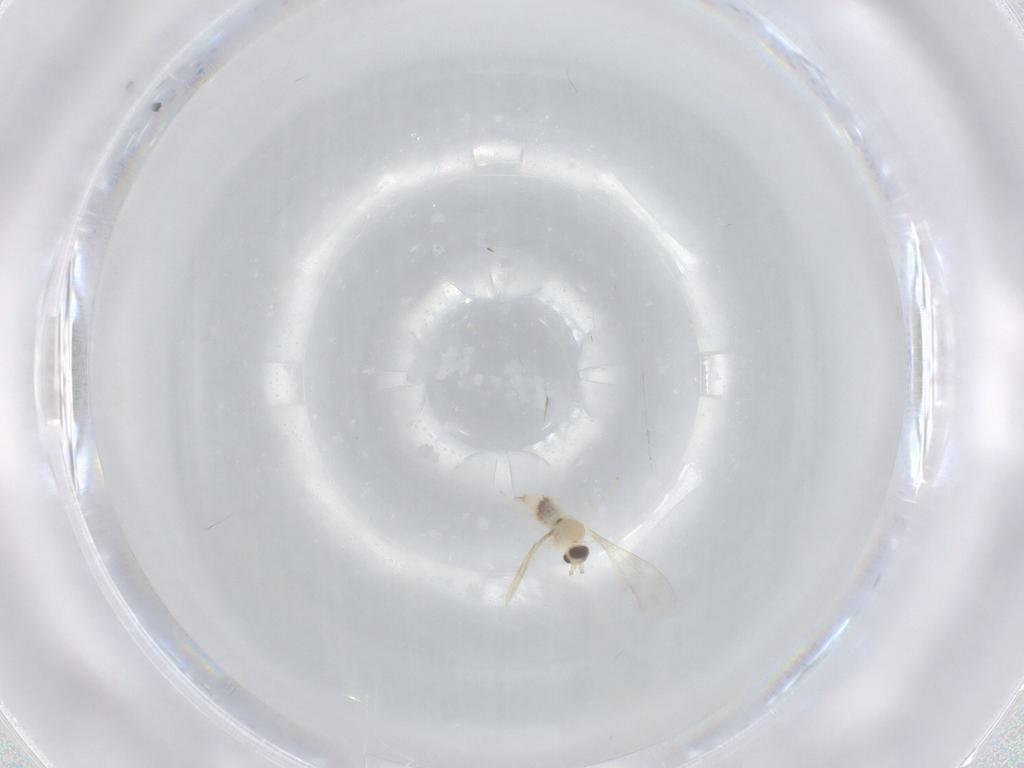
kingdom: Animalia
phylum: Arthropoda
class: Insecta
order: Diptera
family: Cecidomyiidae
